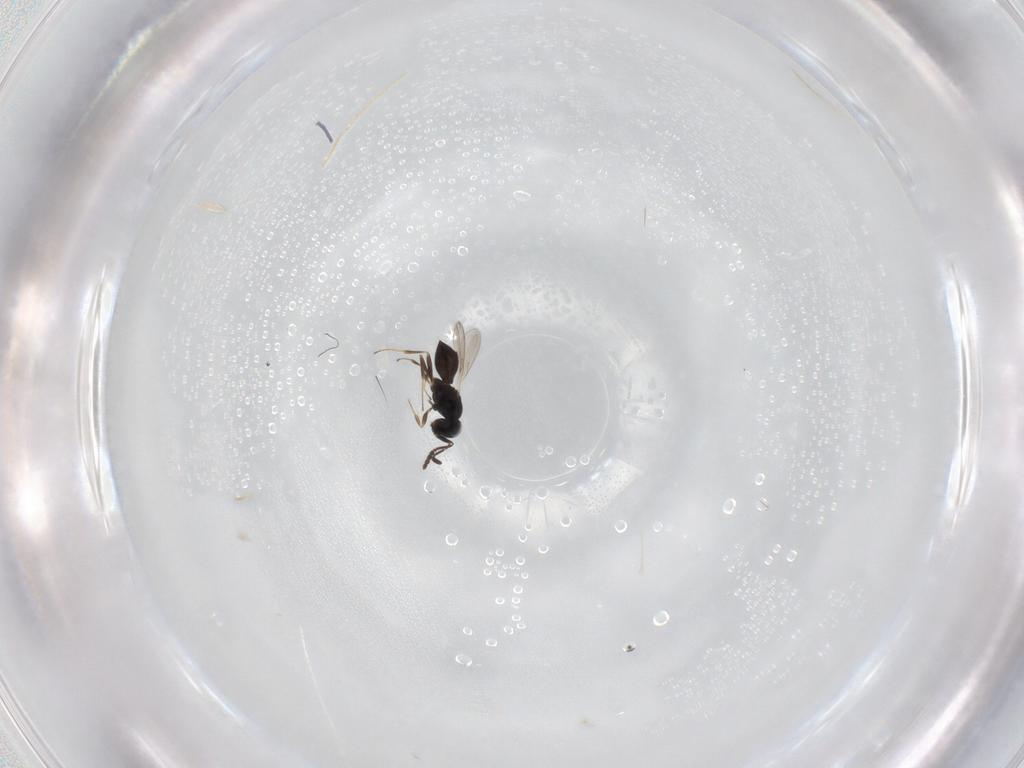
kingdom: Animalia
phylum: Arthropoda
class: Insecta
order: Hymenoptera
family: Scelionidae
